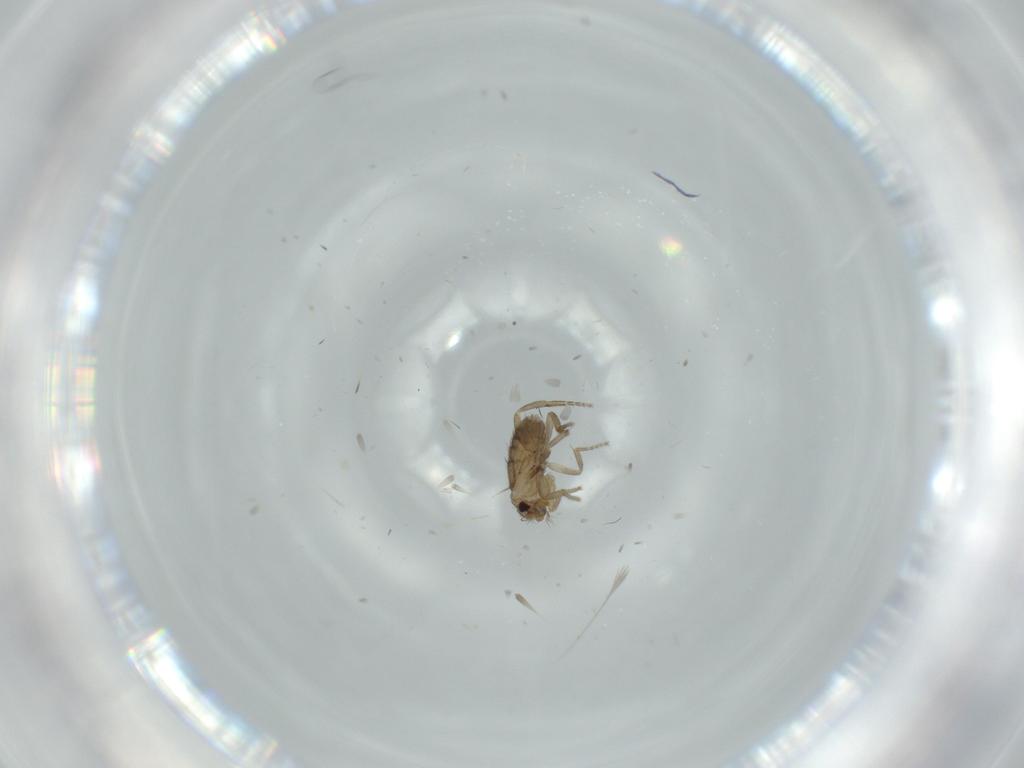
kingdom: Animalia
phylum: Arthropoda
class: Insecta
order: Diptera
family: Phoridae
